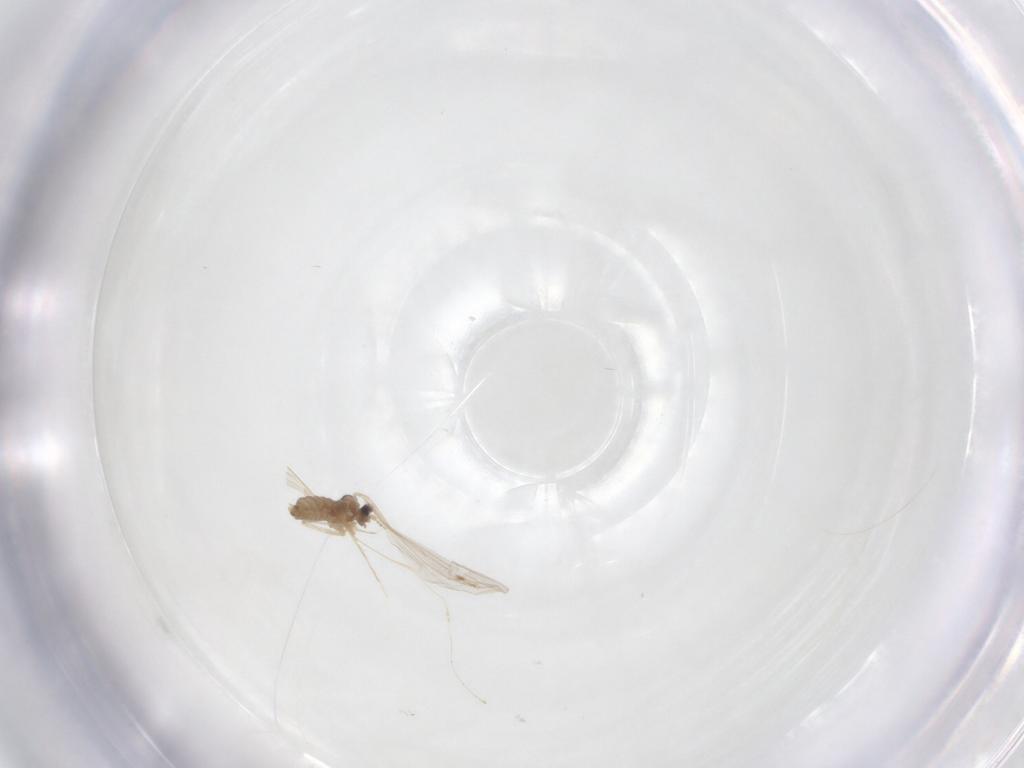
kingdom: Animalia
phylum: Arthropoda
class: Insecta
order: Diptera
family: Cecidomyiidae
